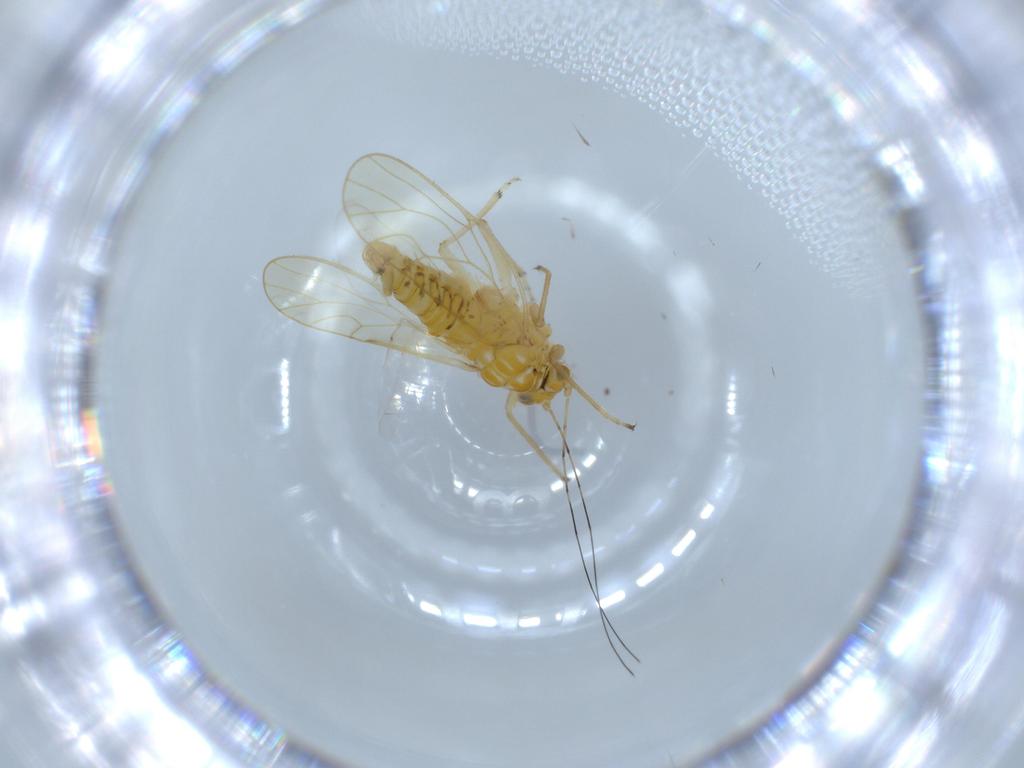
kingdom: Animalia
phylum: Arthropoda
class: Insecta
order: Hemiptera
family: Psyllidae
